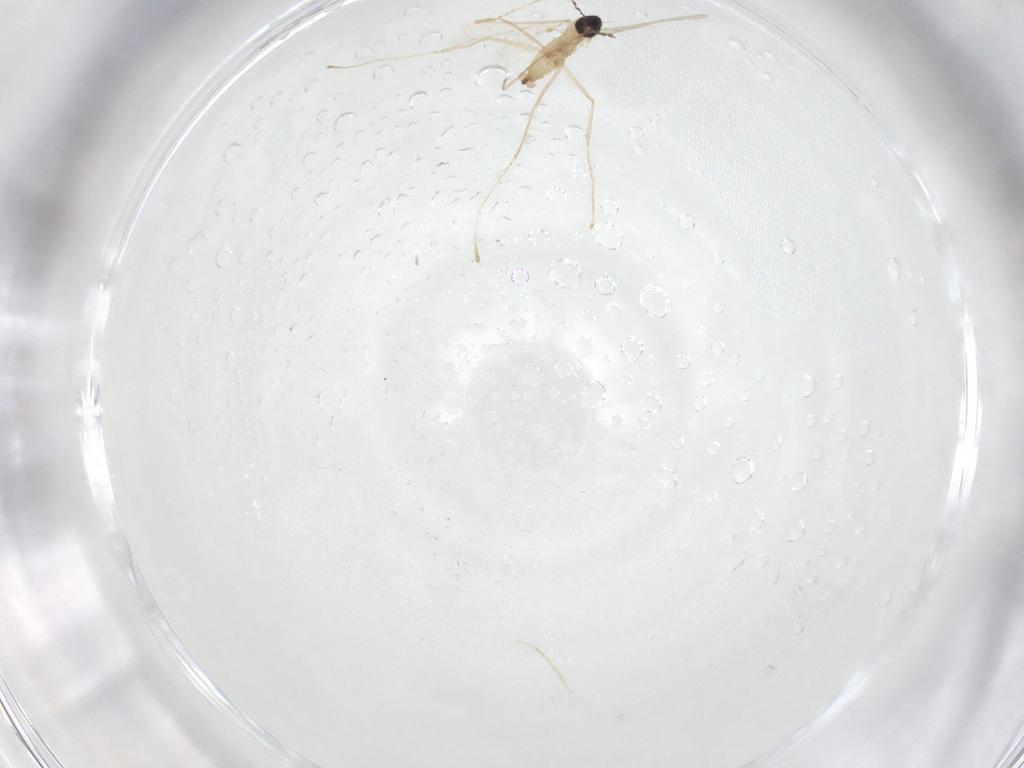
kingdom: Animalia
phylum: Arthropoda
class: Insecta
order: Diptera
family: Cecidomyiidae
